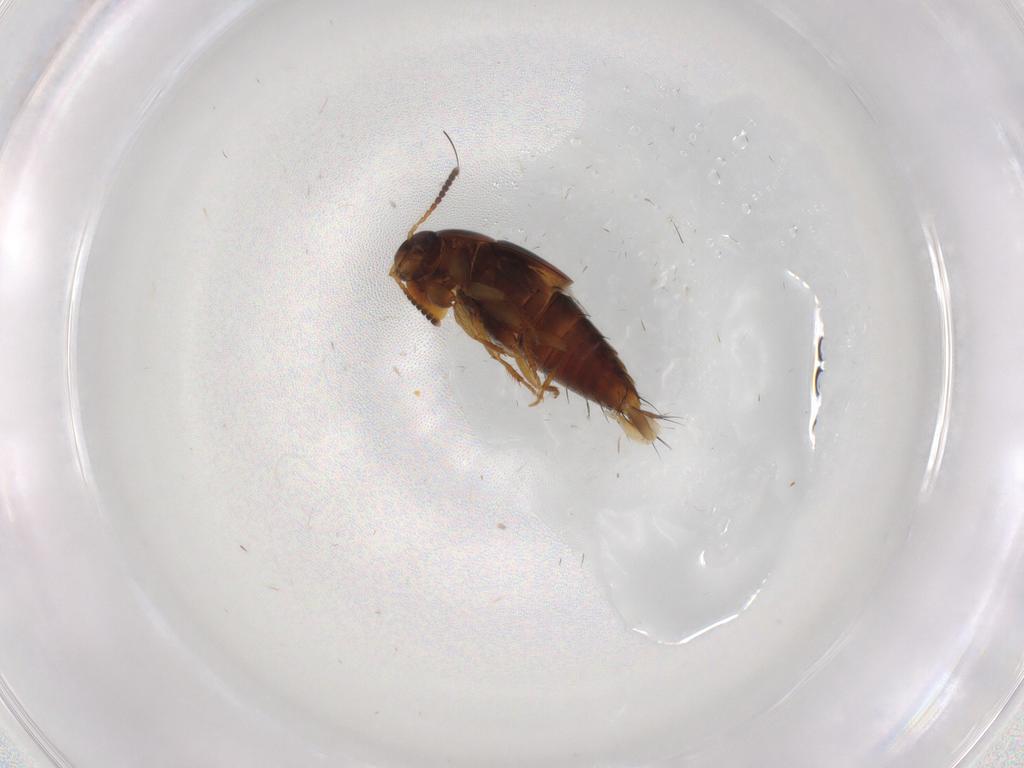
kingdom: Animalia
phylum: Arthropoda
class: Insecta
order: Coleoptera
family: Staphylinidae
